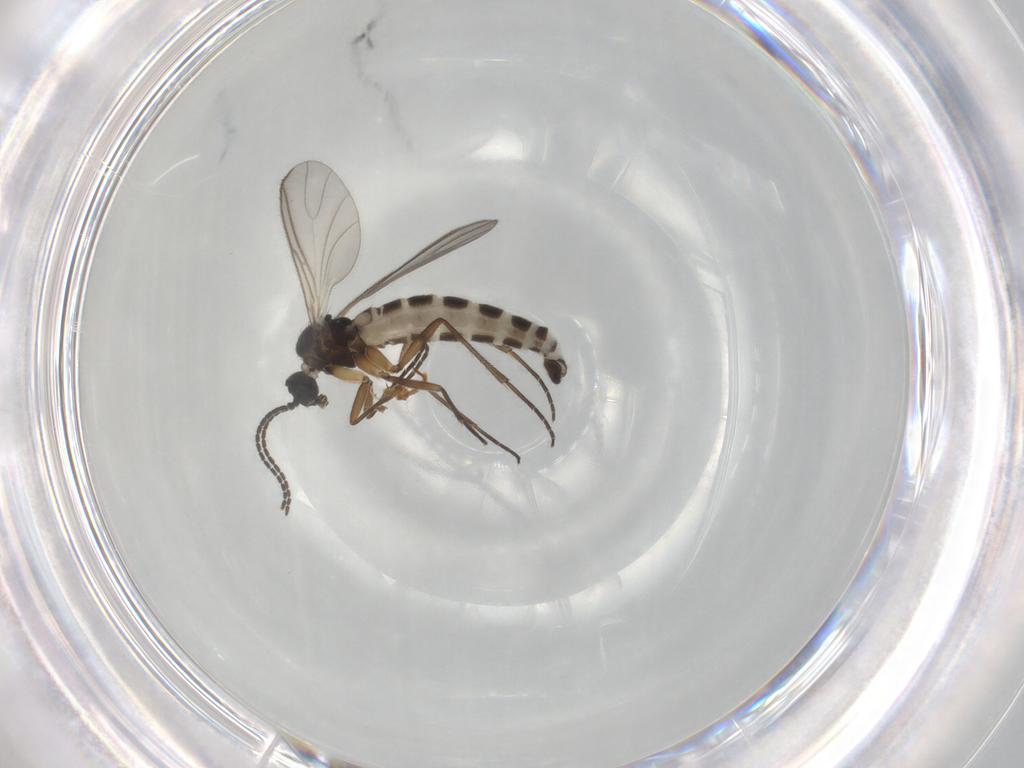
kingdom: Animalia
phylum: Arthropoda
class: Insecta
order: Diptera
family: Sciaridae
